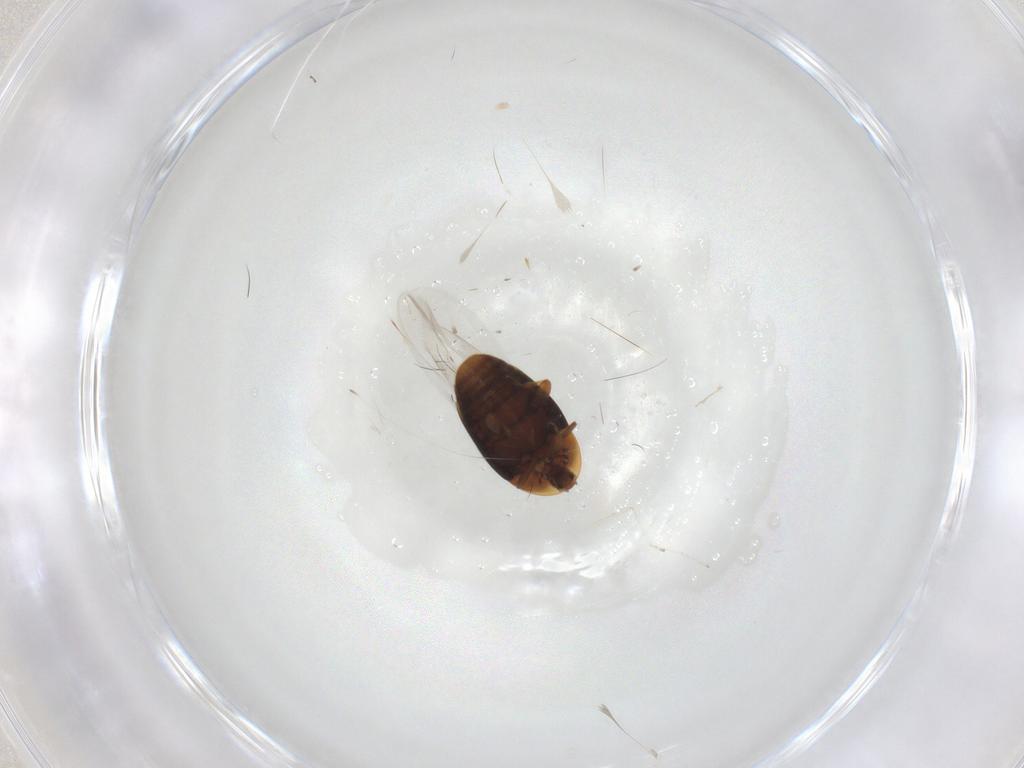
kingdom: Animalia
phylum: Arthropoda
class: Insecta
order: Coleoptera
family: Corylophidae
